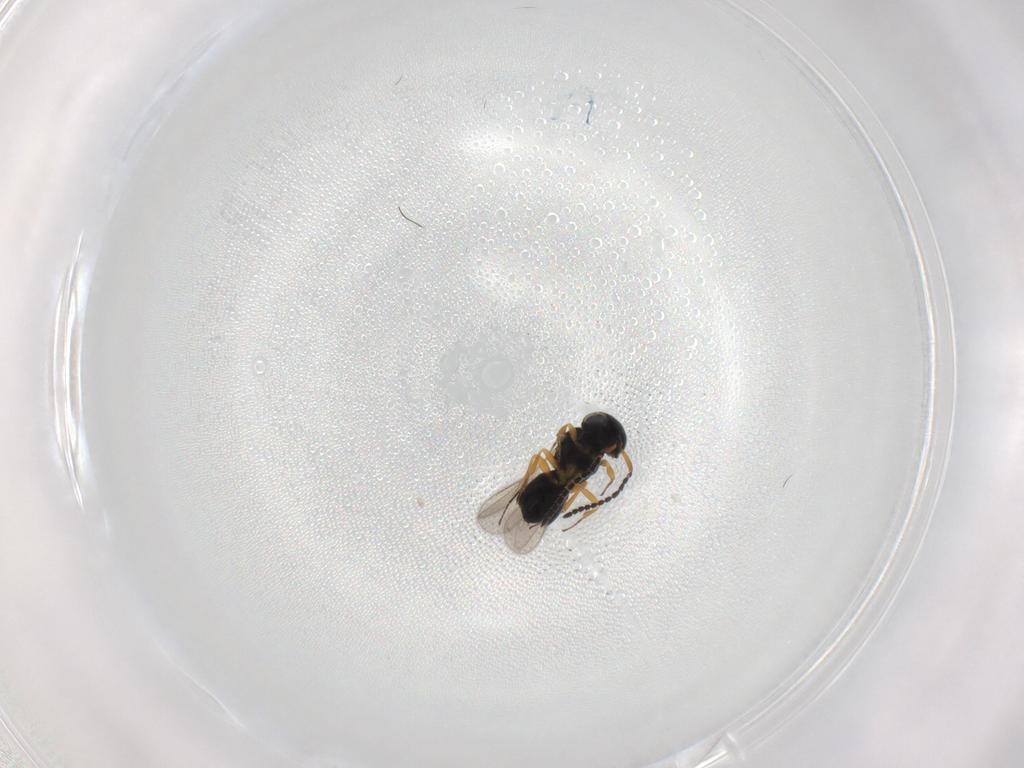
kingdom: Animalia
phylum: Arthropoda
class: Insecta
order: Hymenoptera
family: Scelionidae
